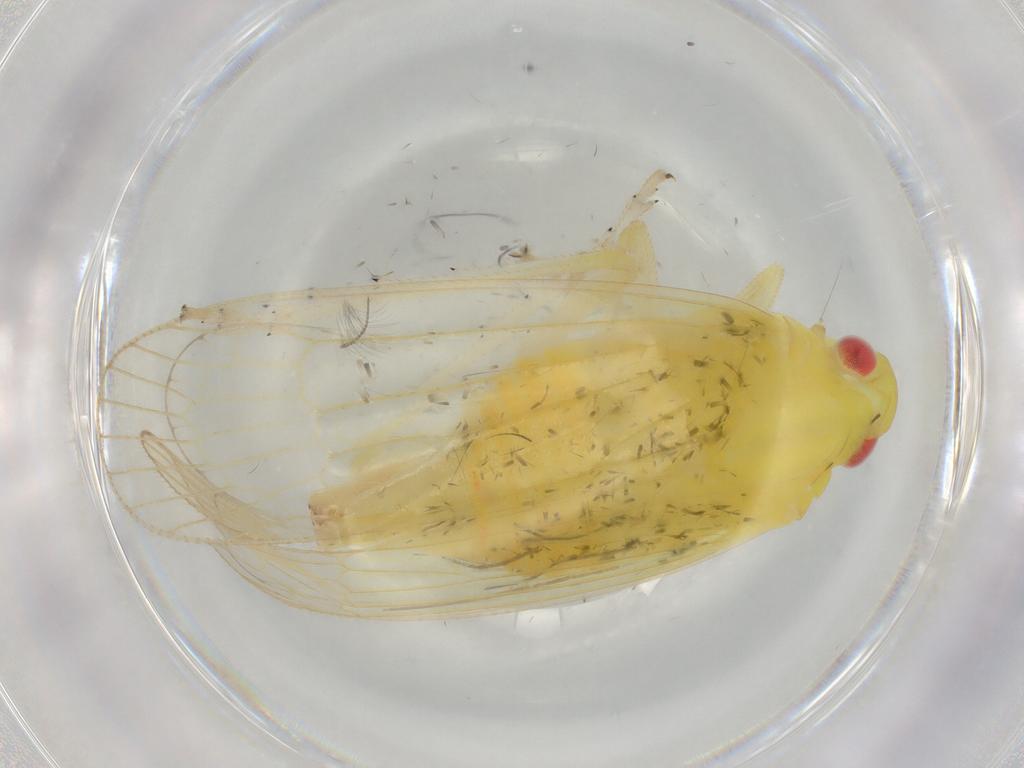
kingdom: Animalia
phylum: Arthropoda
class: Insecta
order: Hemiptera
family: Tropiduchidae
